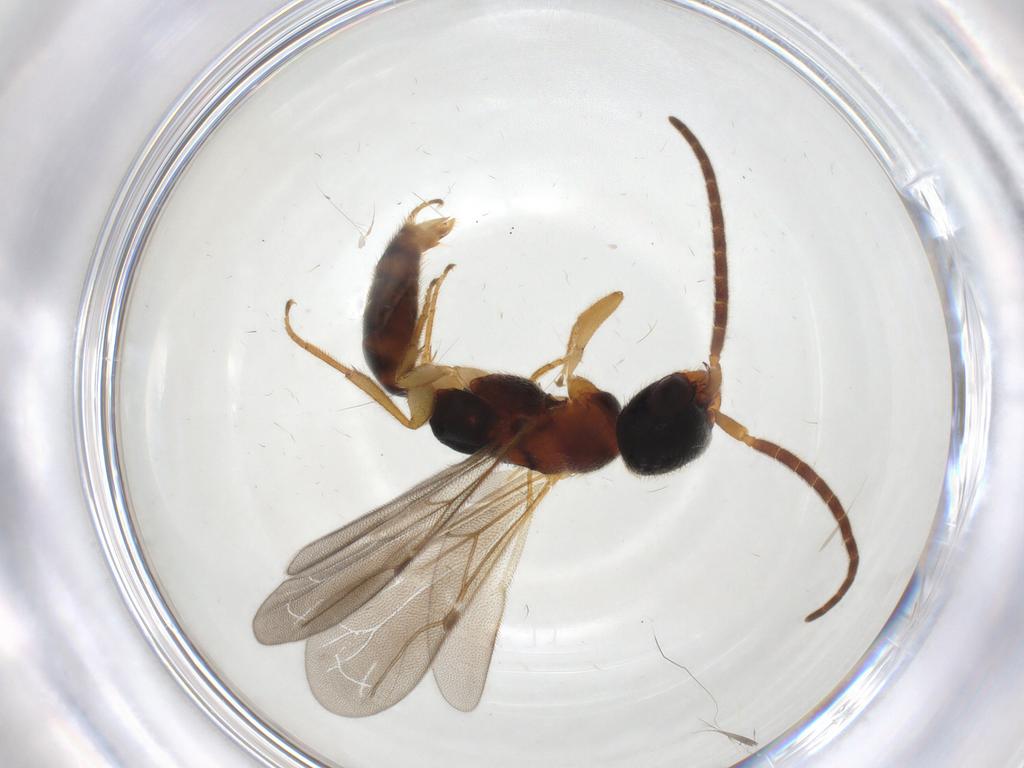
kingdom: Animalia
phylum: Arthropoda
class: Insecta
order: Hymenoptera
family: Bethylidae
